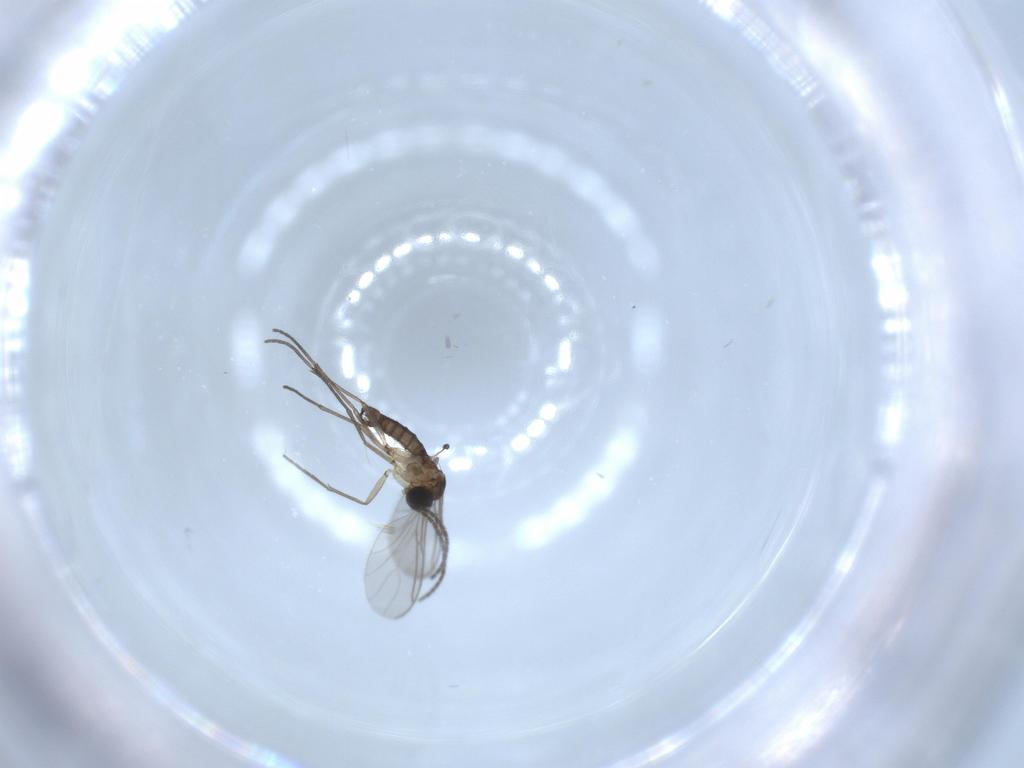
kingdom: Animalia
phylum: Arthropoda
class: Insecta
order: Diptera
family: Sciaridae
